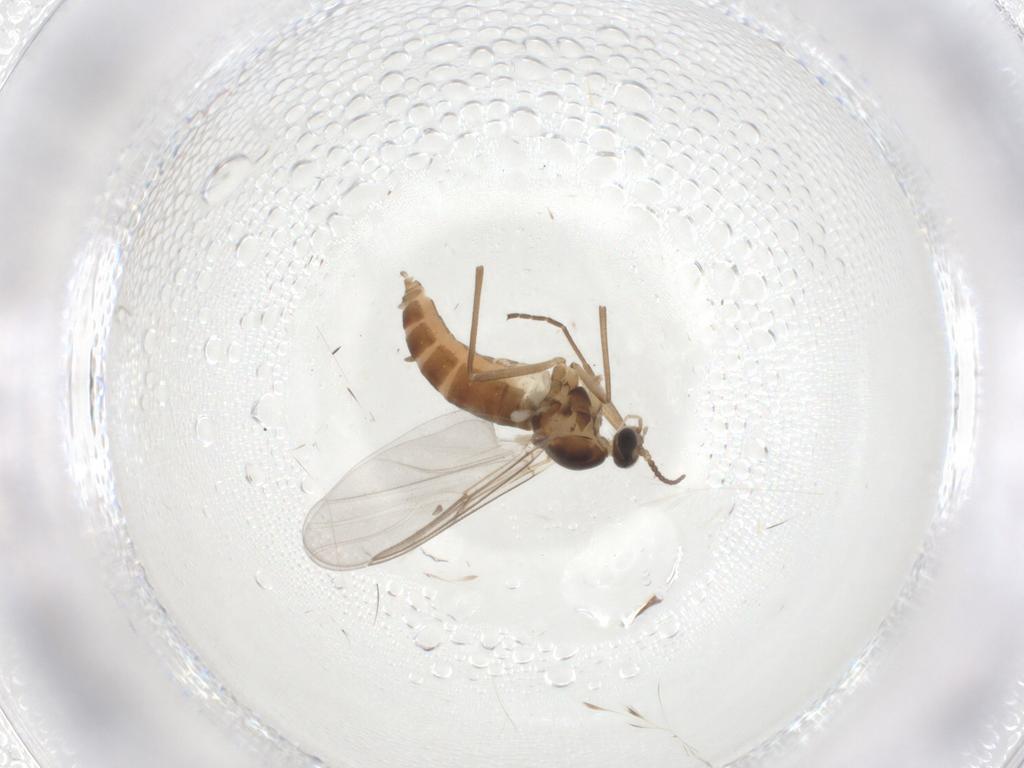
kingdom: Animalia
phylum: Arthropoda
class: Insecta
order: Diptera
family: Cecidomyiidae
